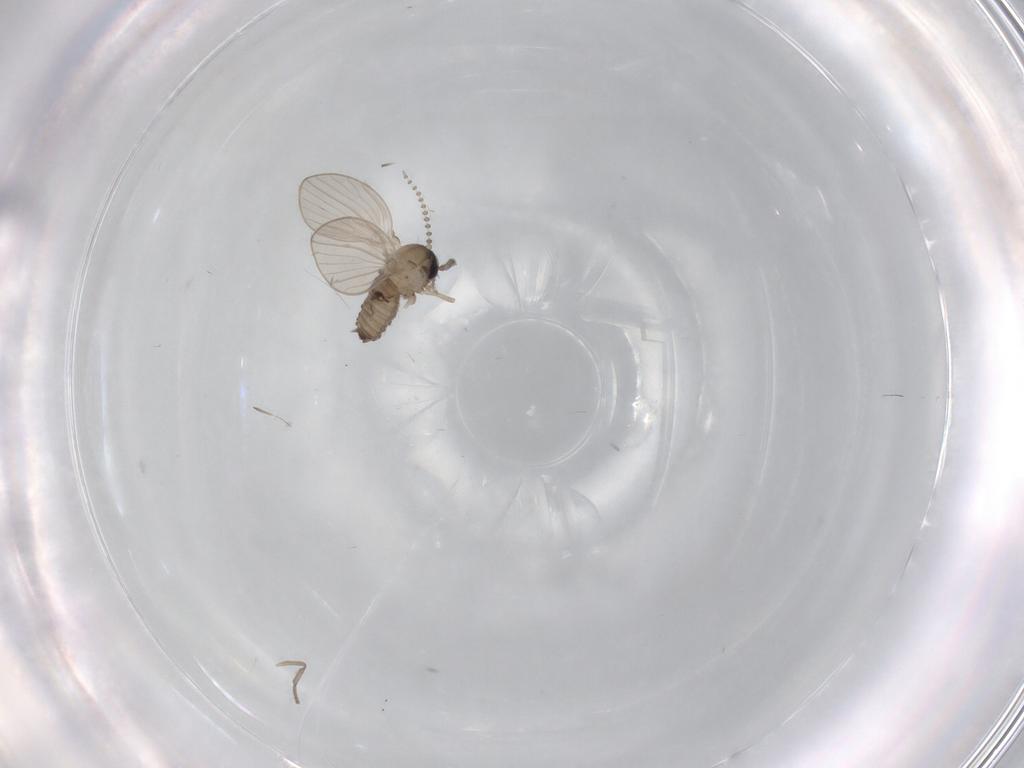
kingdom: Animalia
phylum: Arthropoda
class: Insecta
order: Diptera
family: Psychodidae
